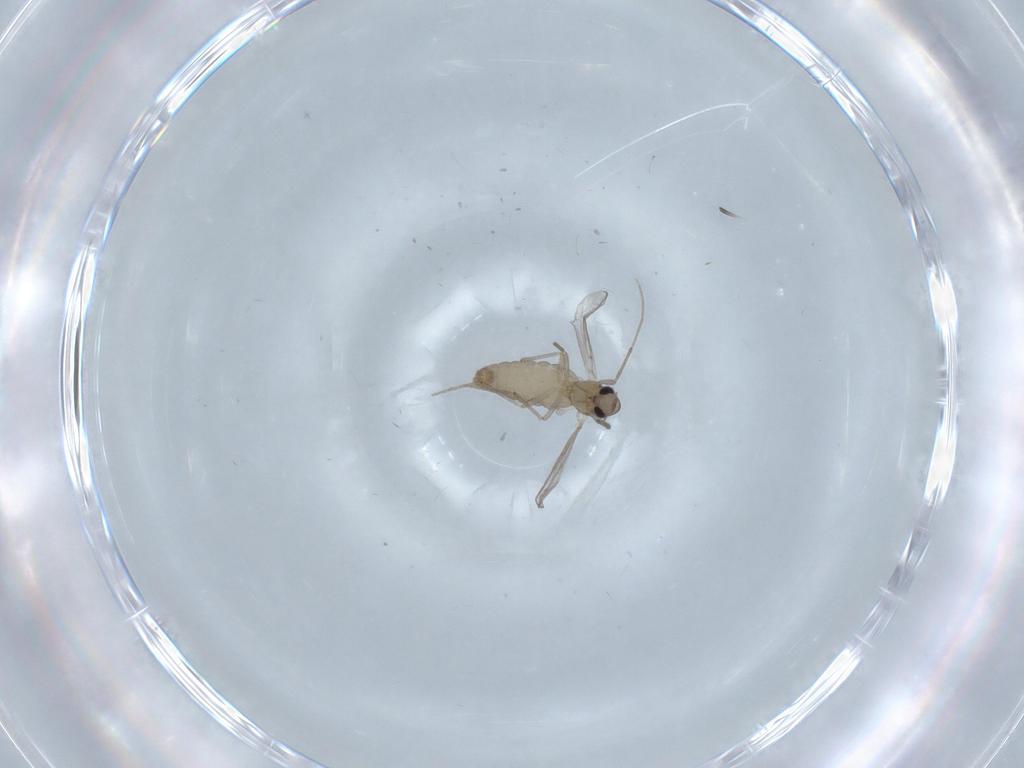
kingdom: Animalia
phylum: Arthropoda
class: Insecta
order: Diptera
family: Chironomidae
